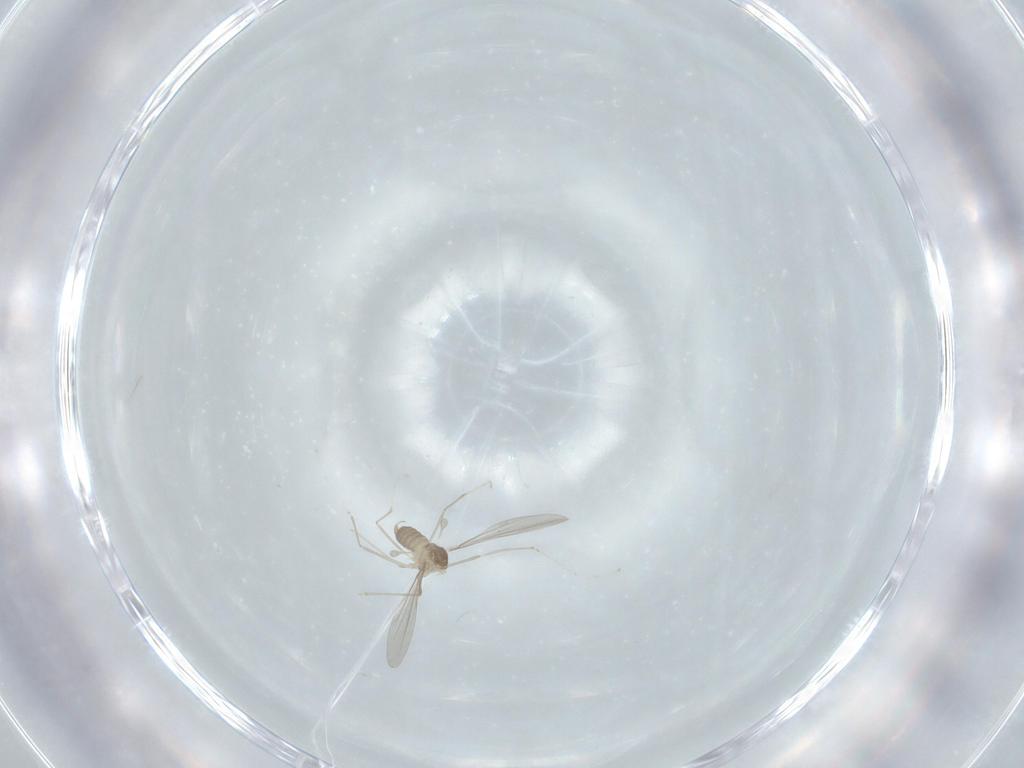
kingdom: Animalia
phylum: Arthropoda
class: Insecta
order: Diptera
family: Cecidomyiidae
